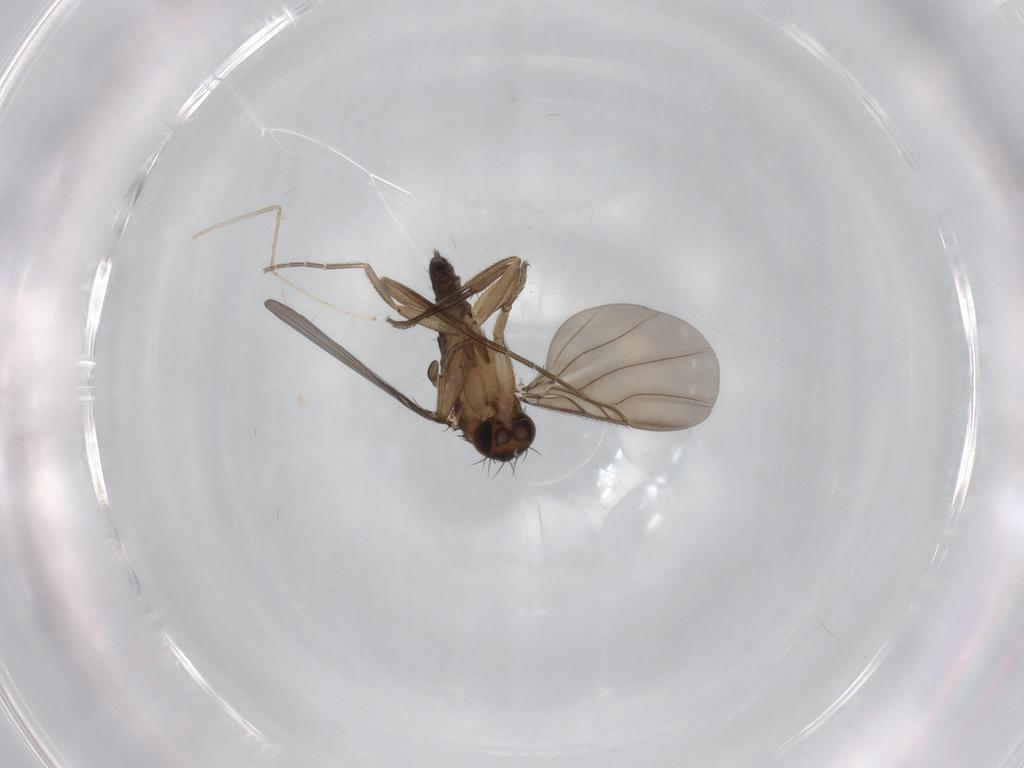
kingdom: Animalia
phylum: Arthropoda
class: Insecta
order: Diptera
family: Phoridae
